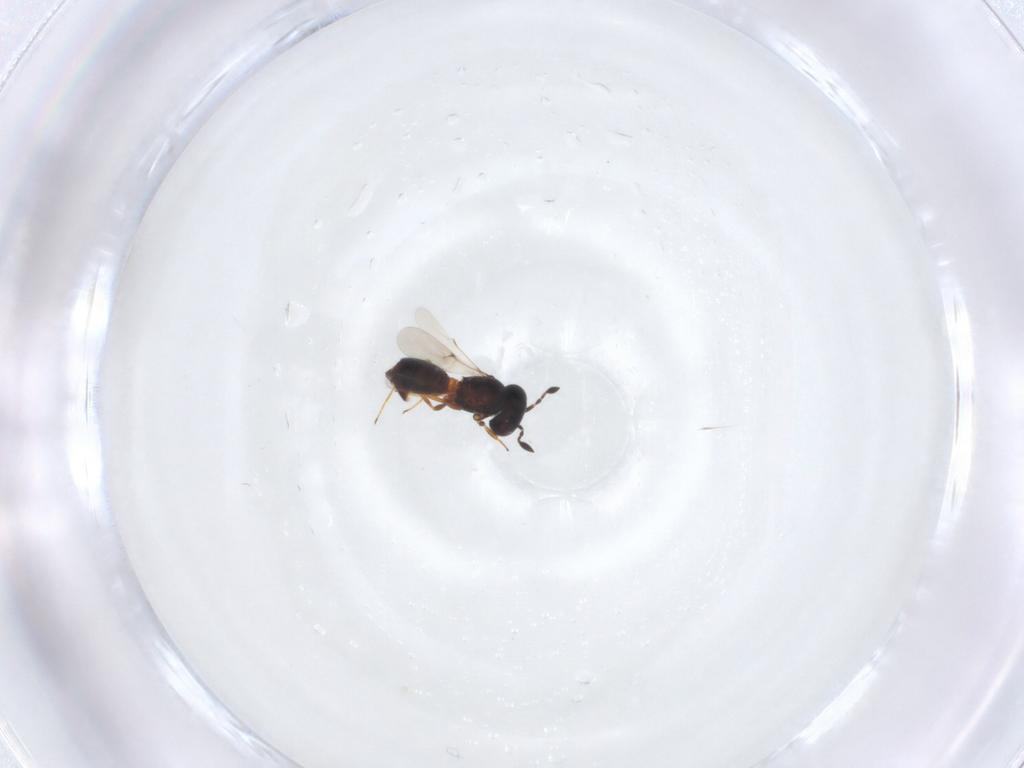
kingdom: Animalia
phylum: Arthropoda
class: Insecta
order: Hymenoptera
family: Scelionidae
